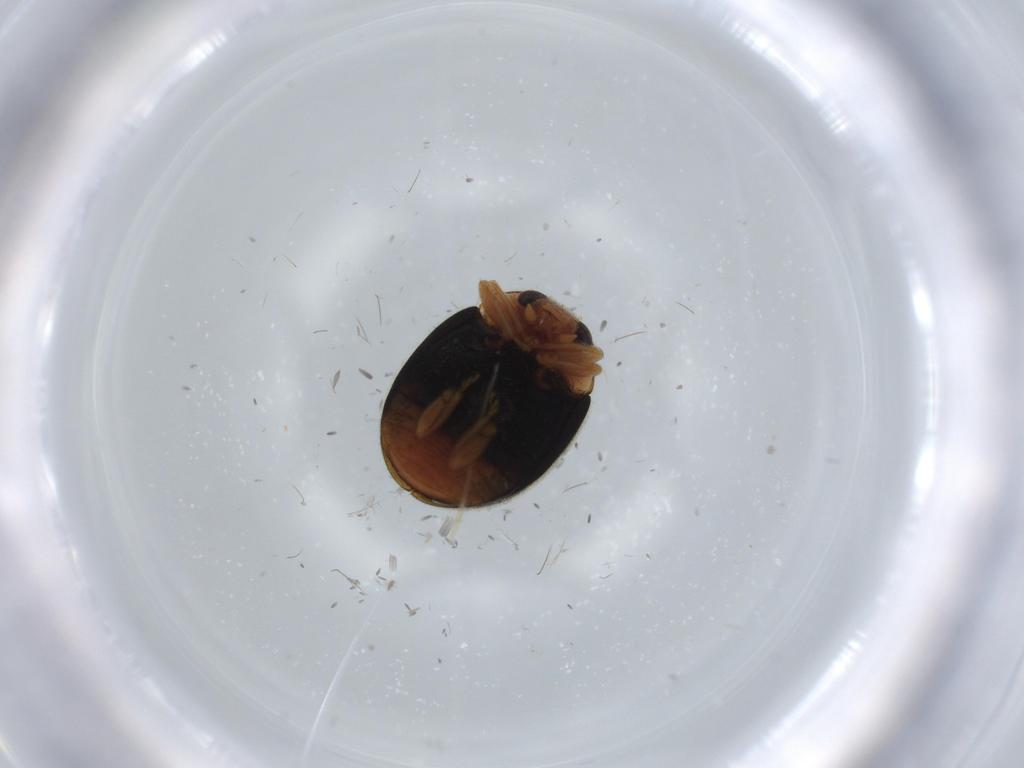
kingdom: Animalia
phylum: Arthropoda
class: Insecta
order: Coleoptera
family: Coccinellidae
